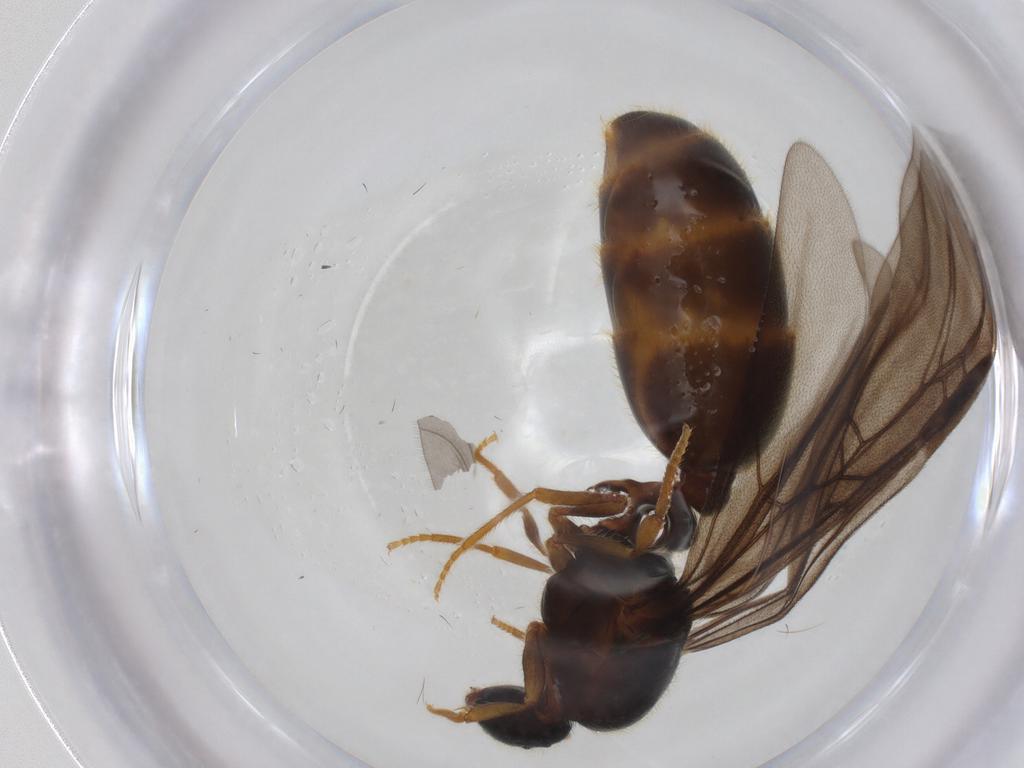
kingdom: Animalia
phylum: Arthropoda
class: Insecta
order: Hymenoptera
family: Formicidae
